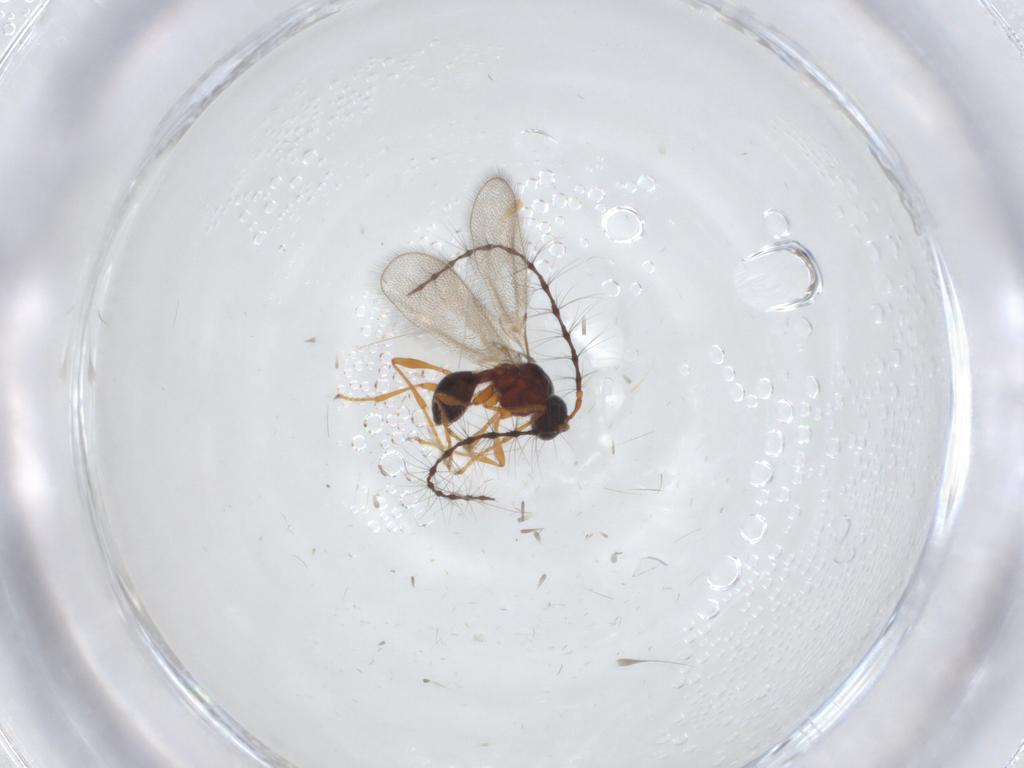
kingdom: Animalia
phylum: Arthropoda
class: Insecta
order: Hymenoptera
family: Diapriidae
